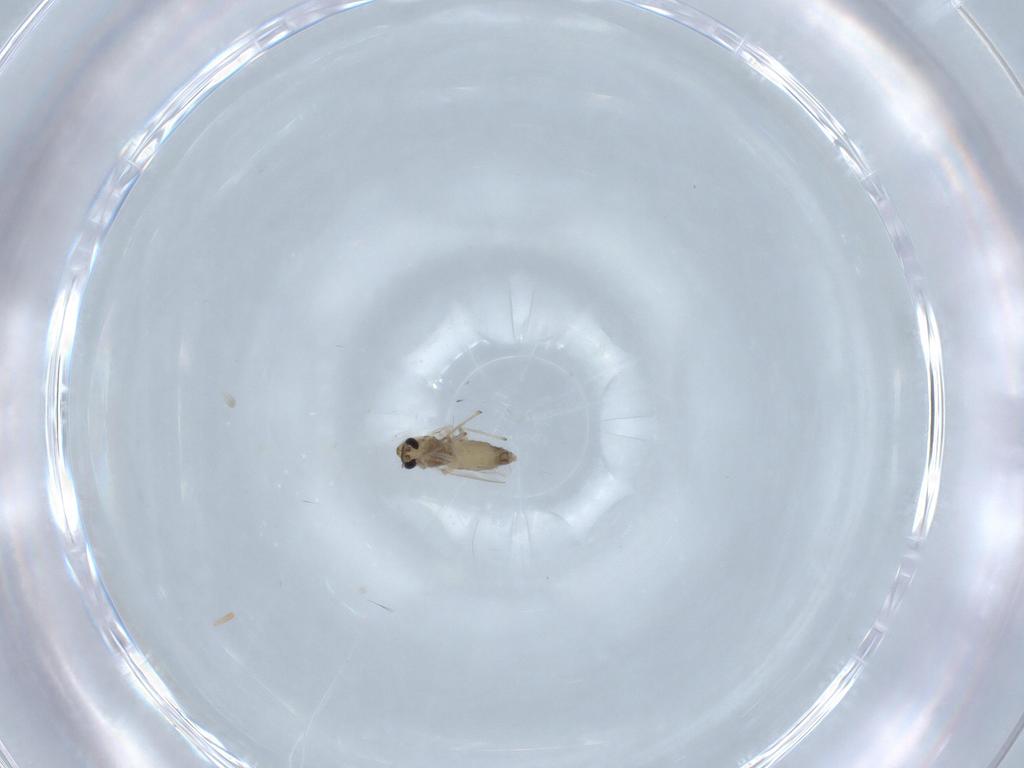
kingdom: Animalia
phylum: Arthropoda
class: Insecta
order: Diptera
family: Chironomidae
